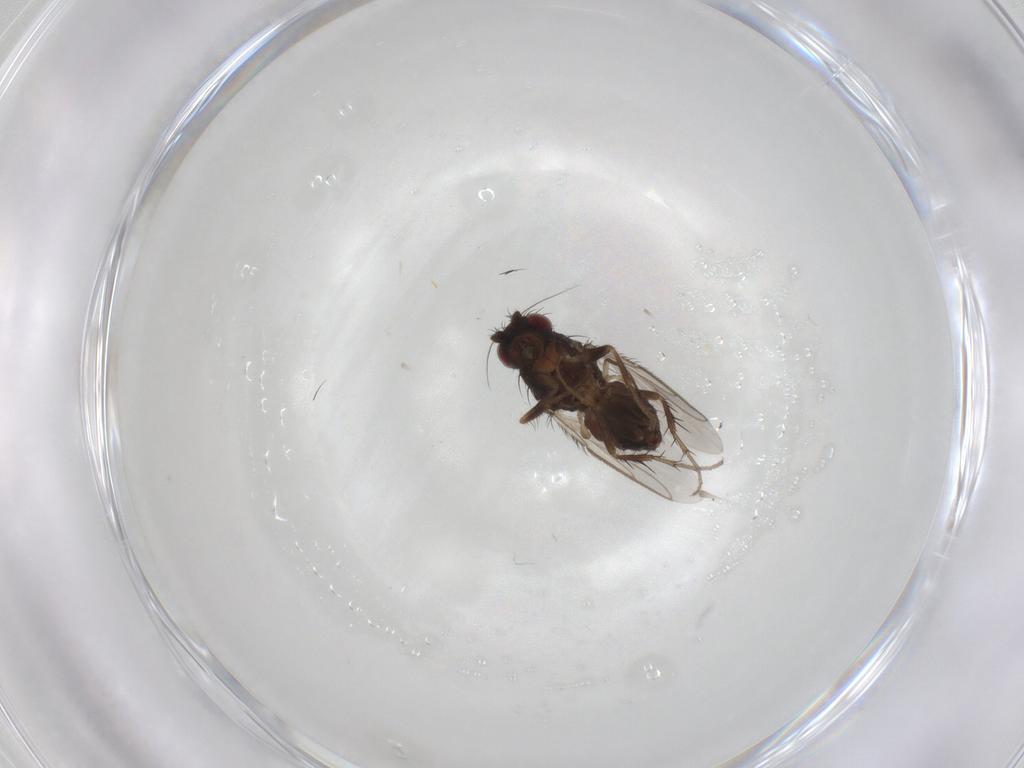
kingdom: Animalia
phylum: Arthropoda
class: Insecta
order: Diptera
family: Sphaeroceridae
